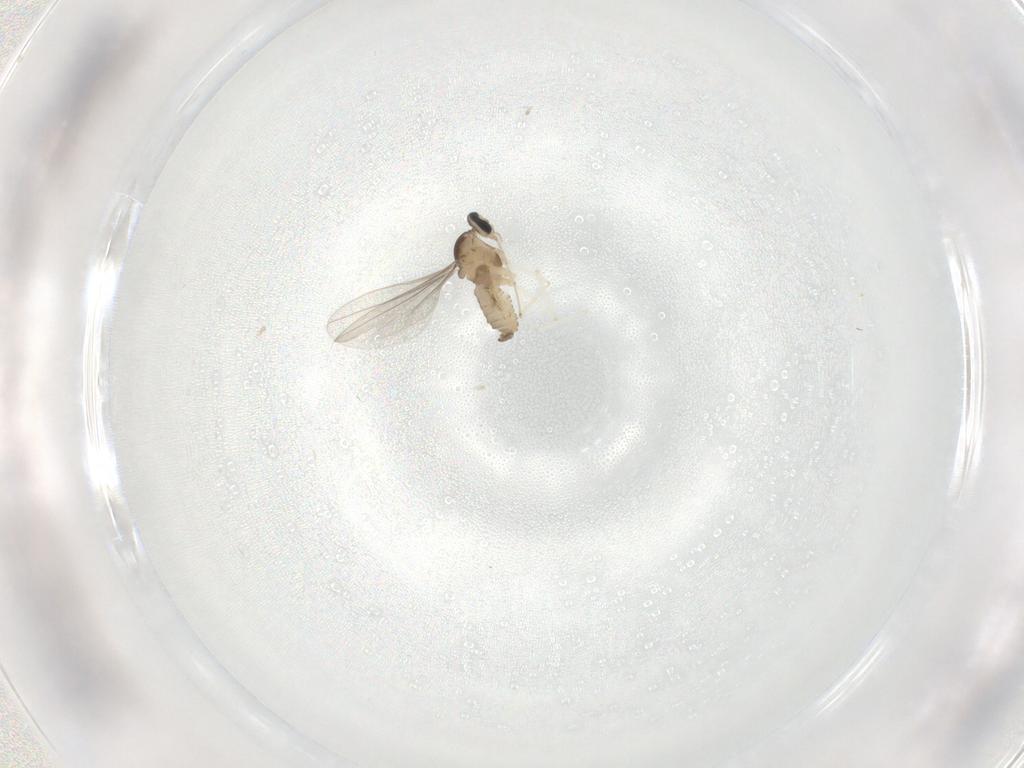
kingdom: Animalia
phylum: Arthropoda
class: Insecta
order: Diptera
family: Cecidomyiidae
